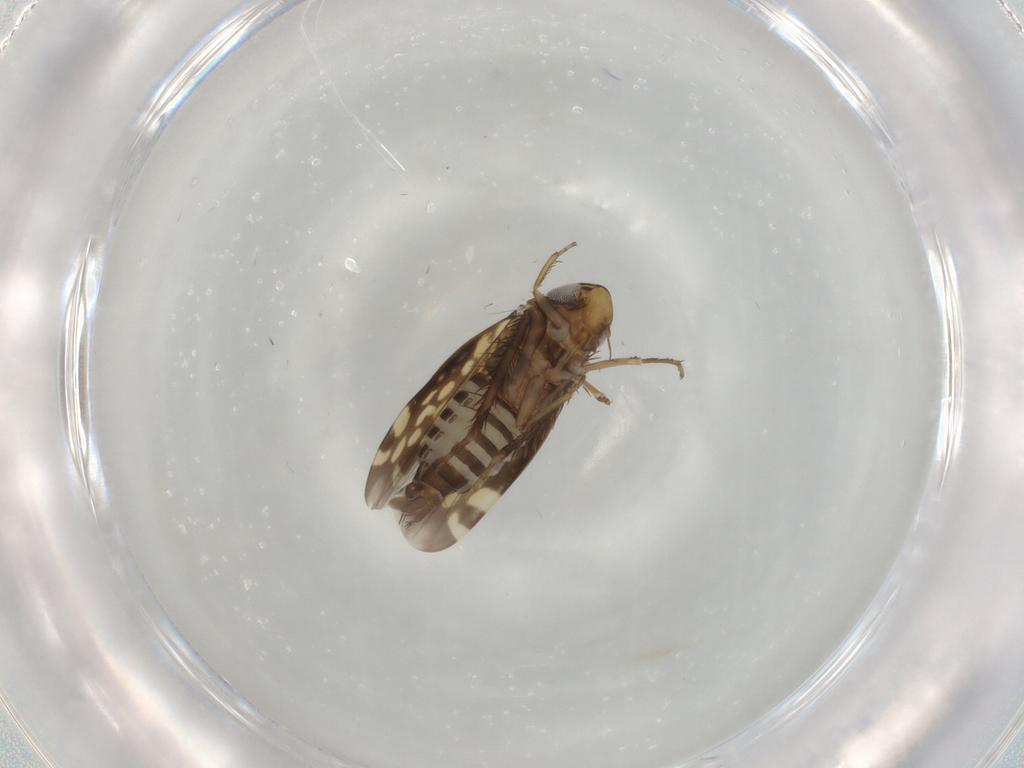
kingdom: Animalia
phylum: Arthropoda
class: Insecta
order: Hemiptera
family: Cicadellidae
